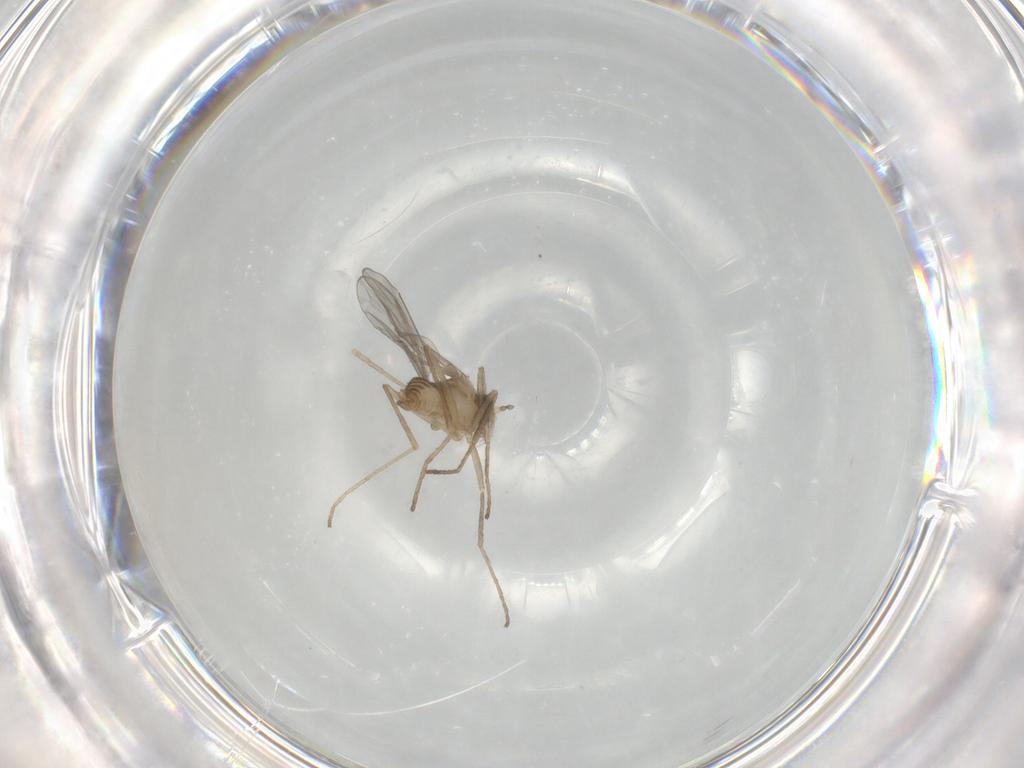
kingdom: Animalia
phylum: Arthropoda
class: Insecta
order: Diptera
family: Cecidomyiidae
